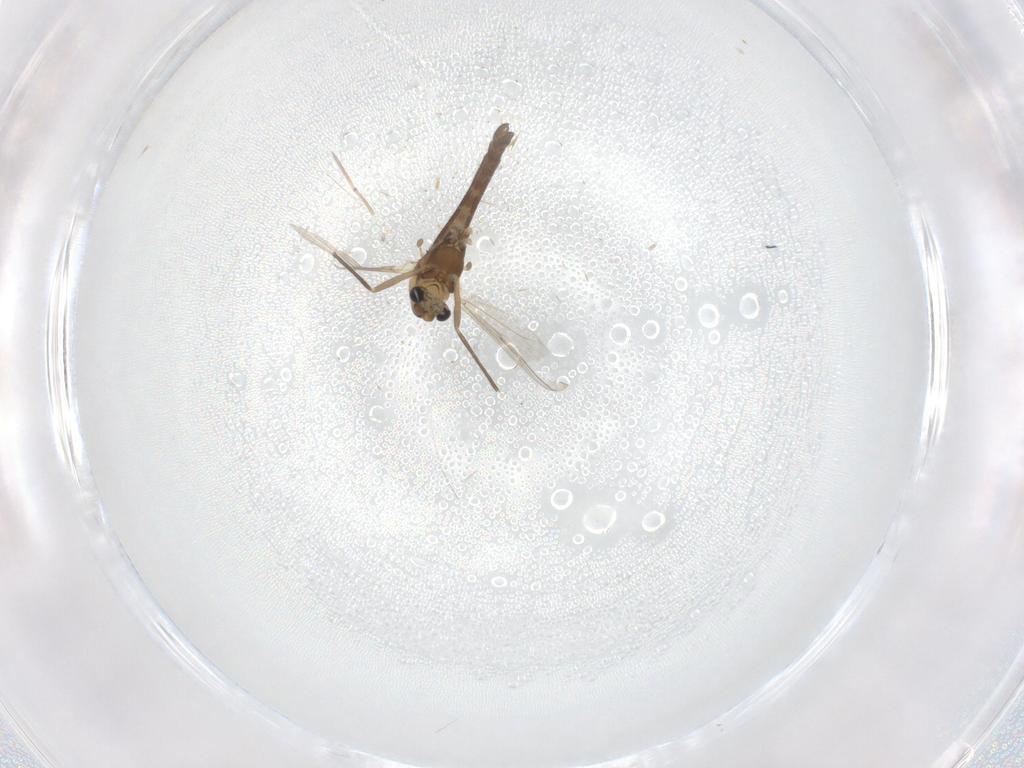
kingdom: Animalia
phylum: Arthropoda
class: Insecta
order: Diptera
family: Chironomidae
